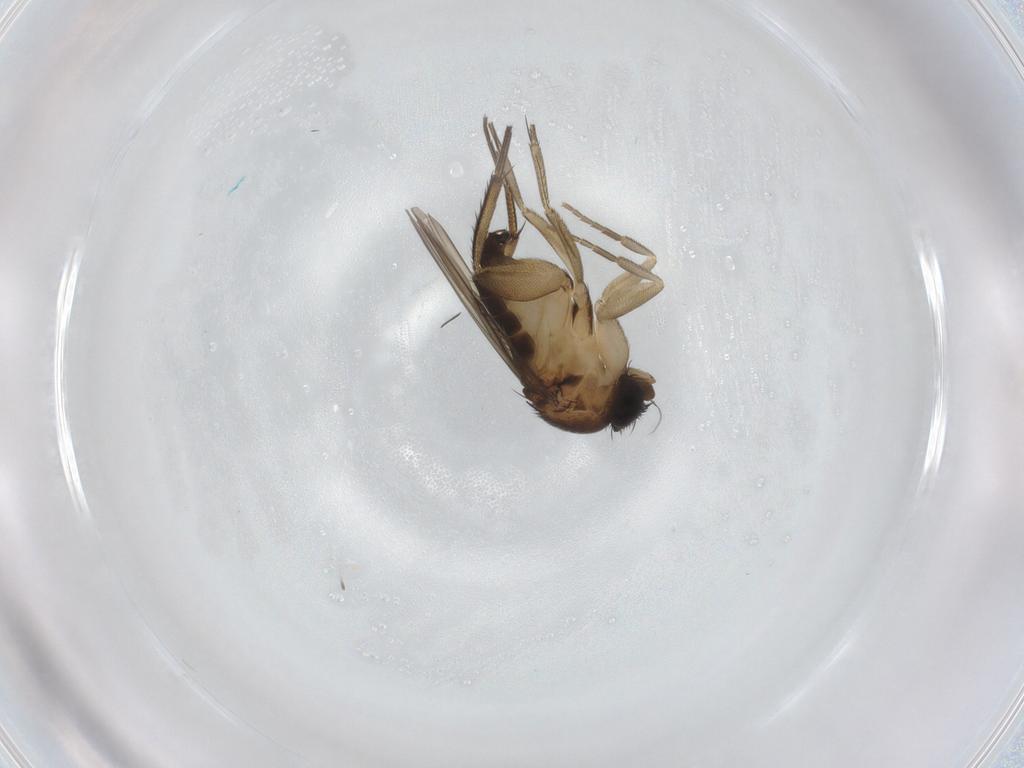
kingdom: Animalia
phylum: Arthropoda
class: Insecta
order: Diptera
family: Phoridae
